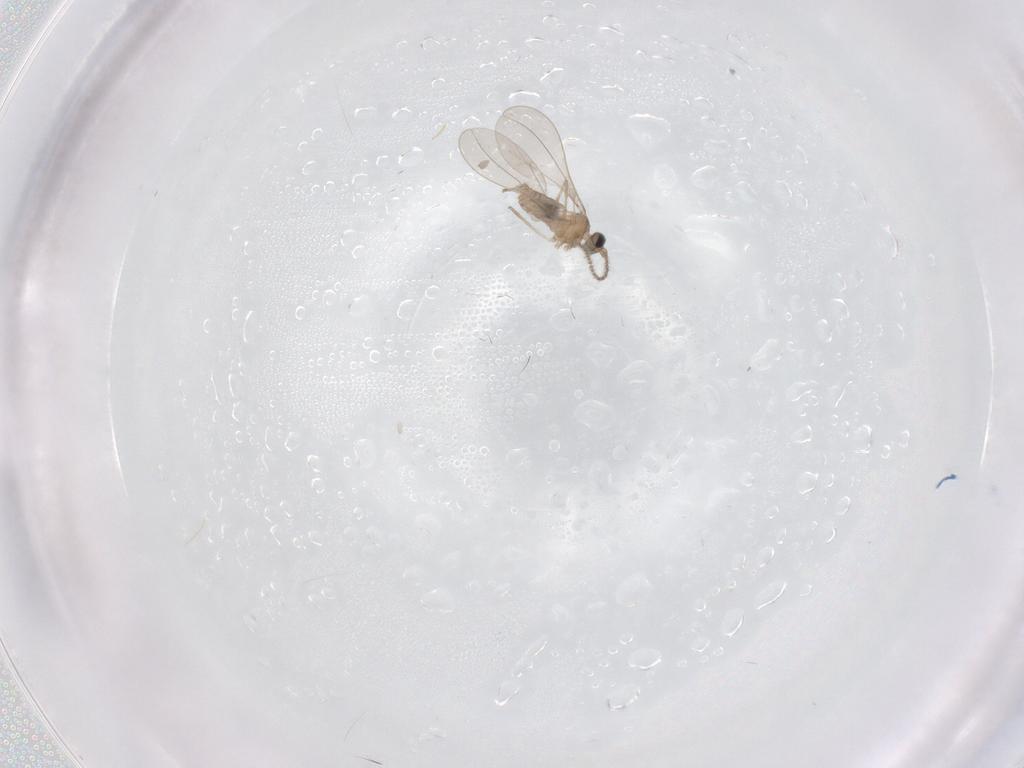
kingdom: Animalia
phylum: Arthropoda
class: Insecta
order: Diptera
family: Cecidomyiidae
